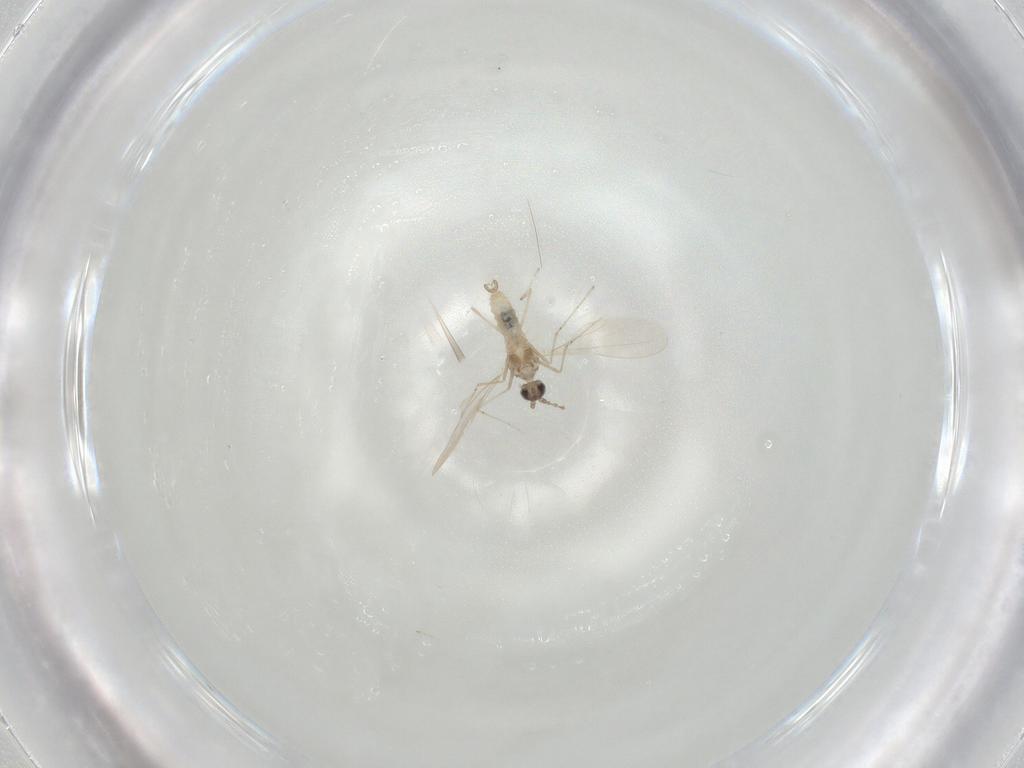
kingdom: Animalia
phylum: Arthropoda
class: Insecta
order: Diptera
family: Cecidomyiidae
